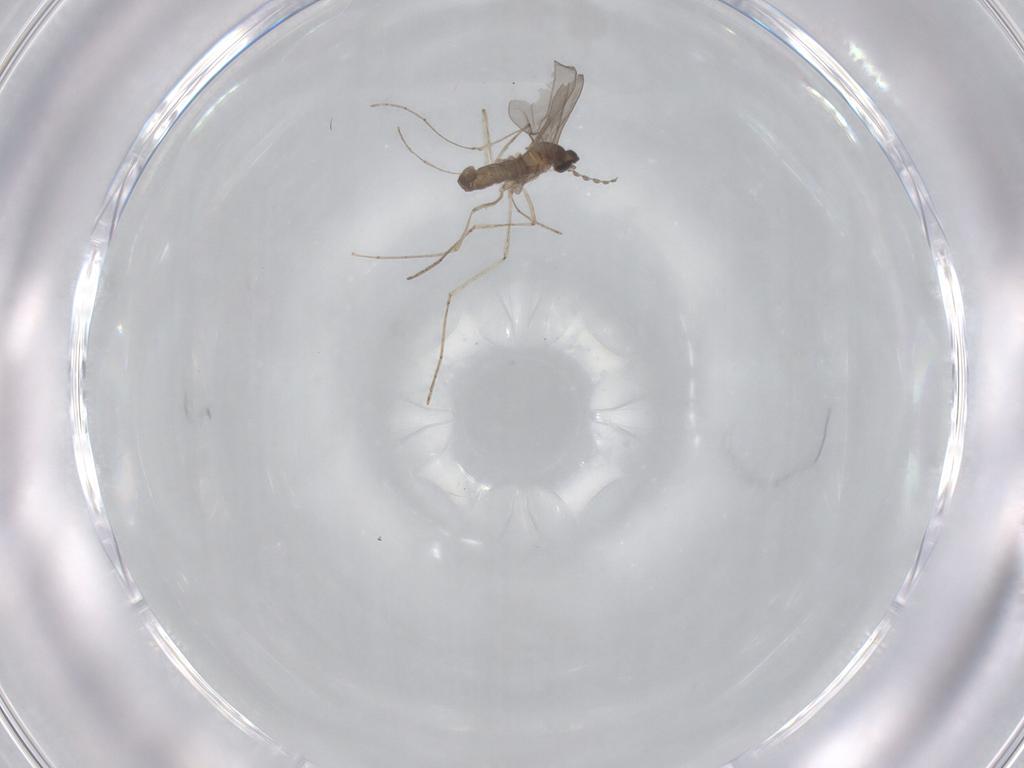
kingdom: Animalia
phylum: Arthropoda
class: Insecta
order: Diptera
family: Cecidomyiidae
